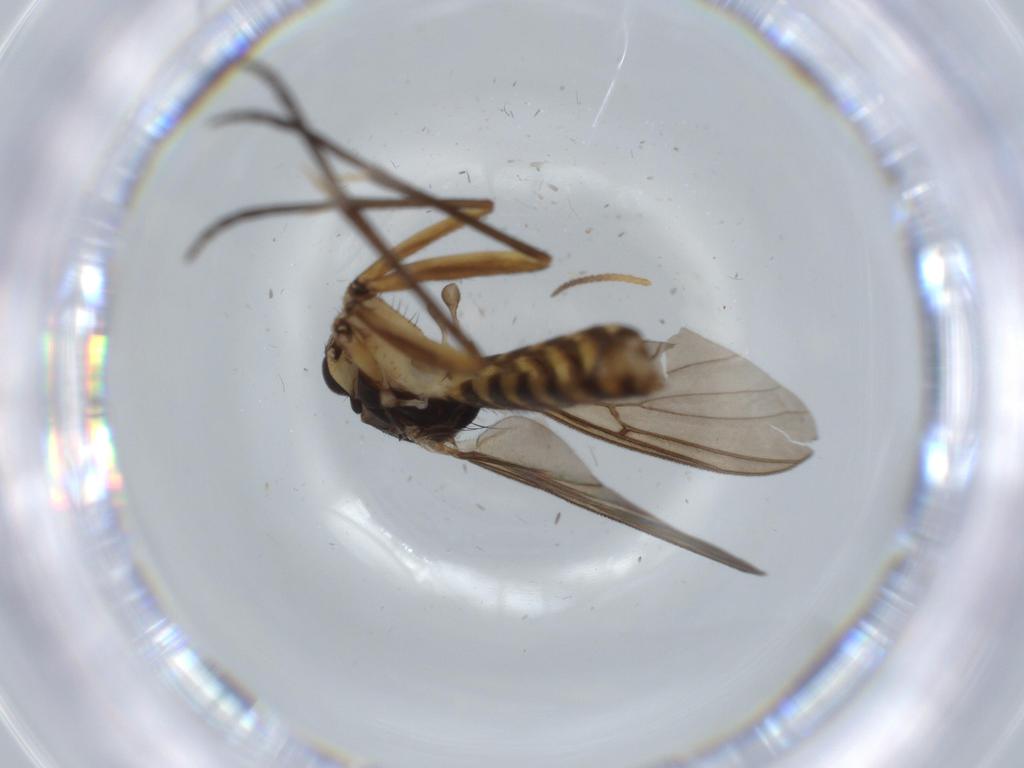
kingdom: Animalia
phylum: Arthropoda
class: Insecta
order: Diptera
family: Chironomidae
